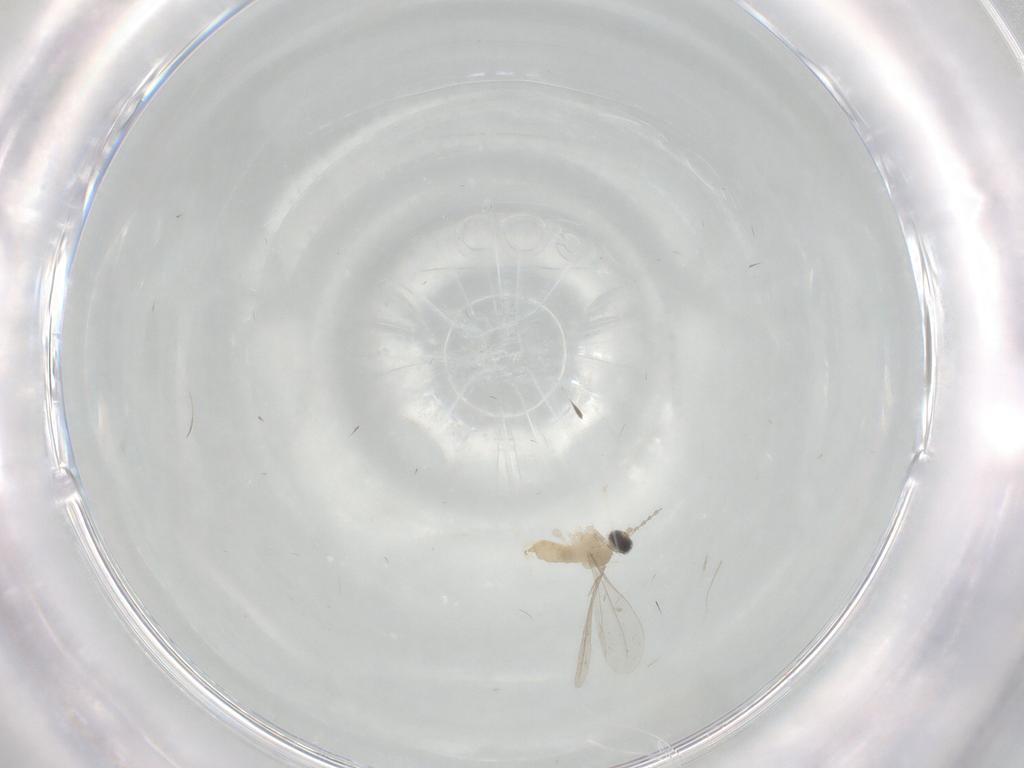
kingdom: Animalia
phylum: Arthropoda
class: Insecta
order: Diptera
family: Cecidomyiidae
